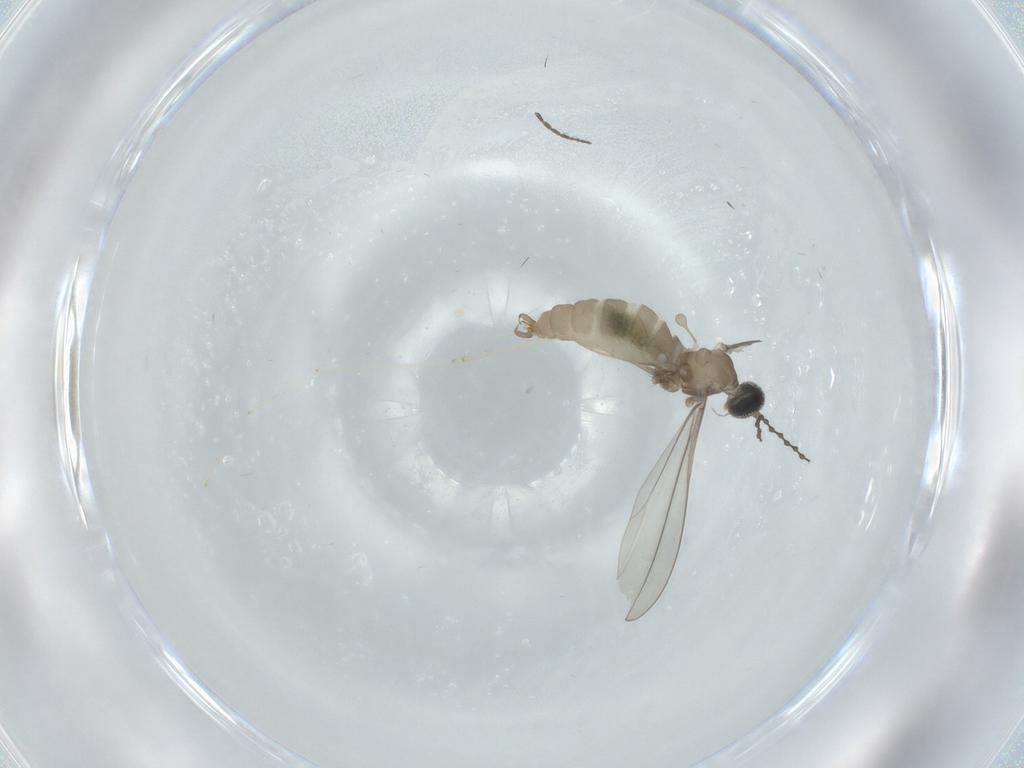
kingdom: Animalia
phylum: Arthropoda
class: Insecta
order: Diptera
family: Cecidomyiidae
